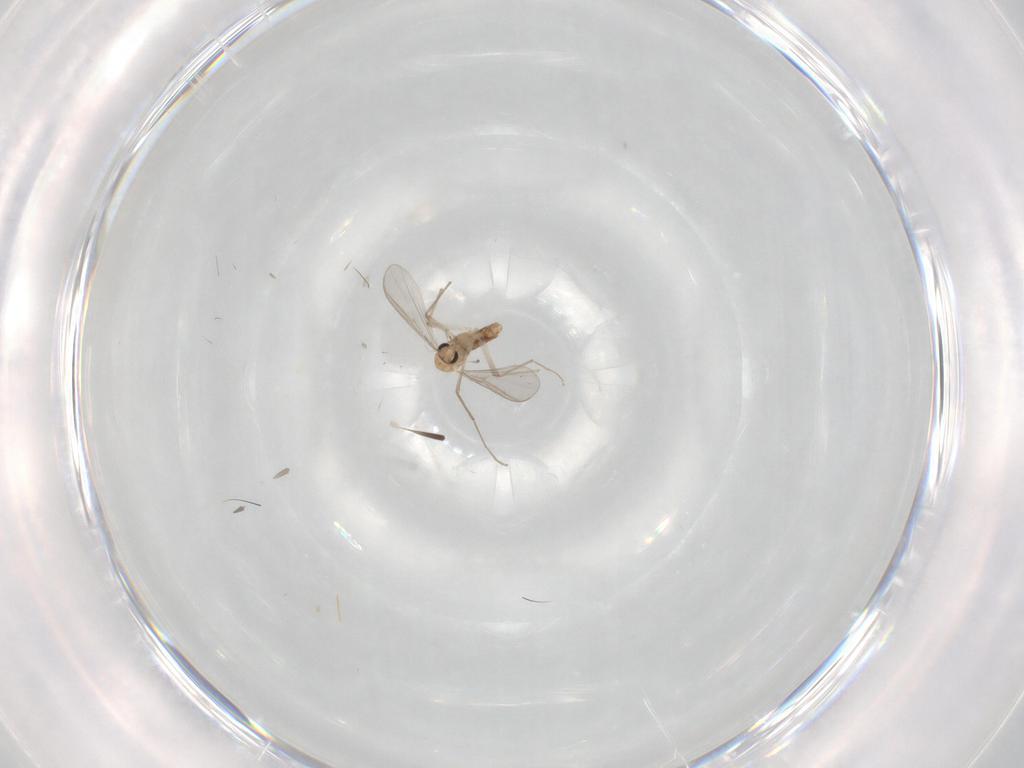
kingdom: Animalia
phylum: Arthropoda
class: Insecta
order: Diptera
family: Chironomidae
